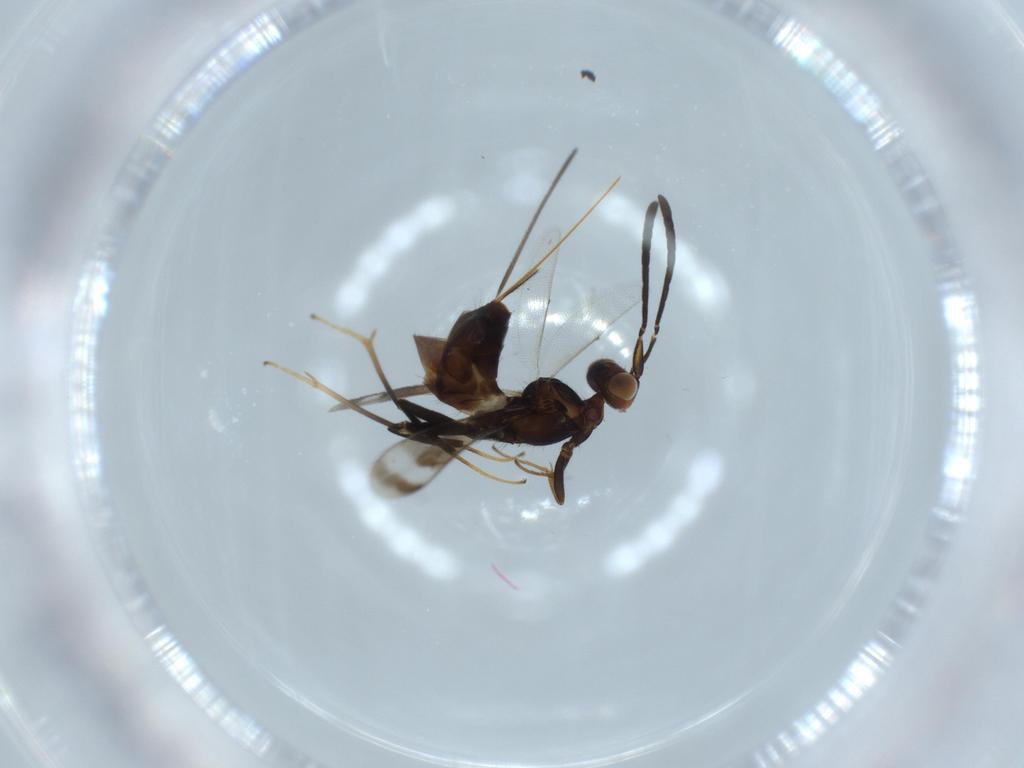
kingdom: Animalia
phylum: Arthropoda
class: Insecta
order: Hymenoptera
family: Eupelmidae
